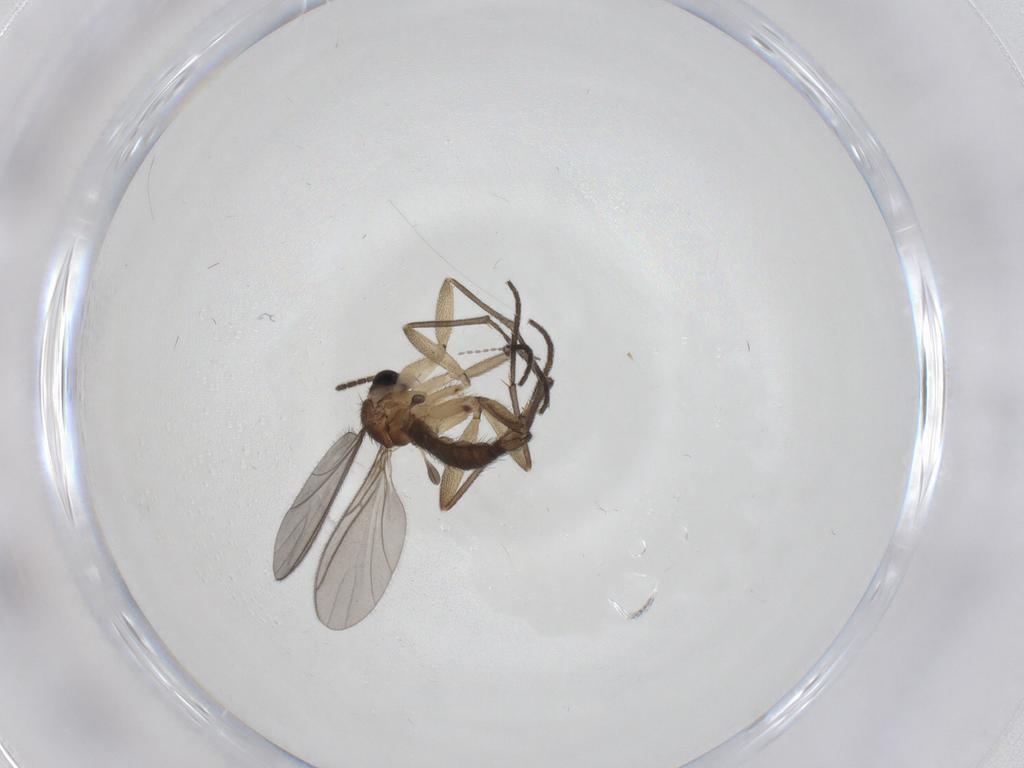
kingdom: Animalia
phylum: Arthropoda
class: Insecta
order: Diptera
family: Sciaridae
